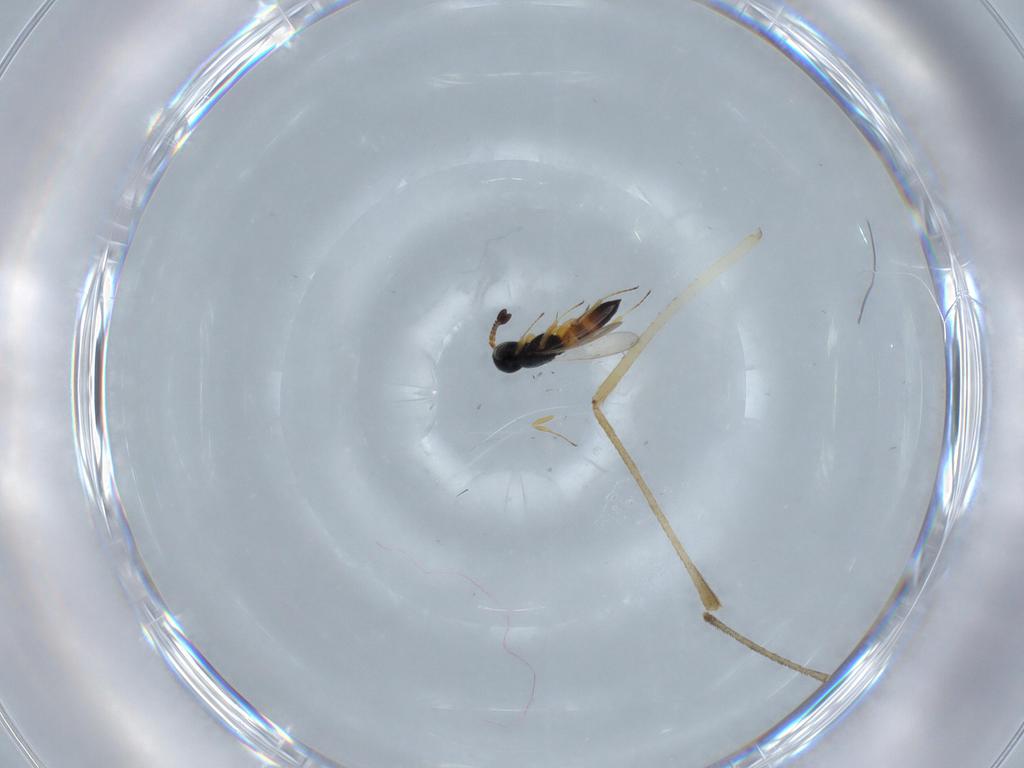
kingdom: Animalia
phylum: Arthropoda
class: Insecta
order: Hymenoptera
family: Scelionidae
